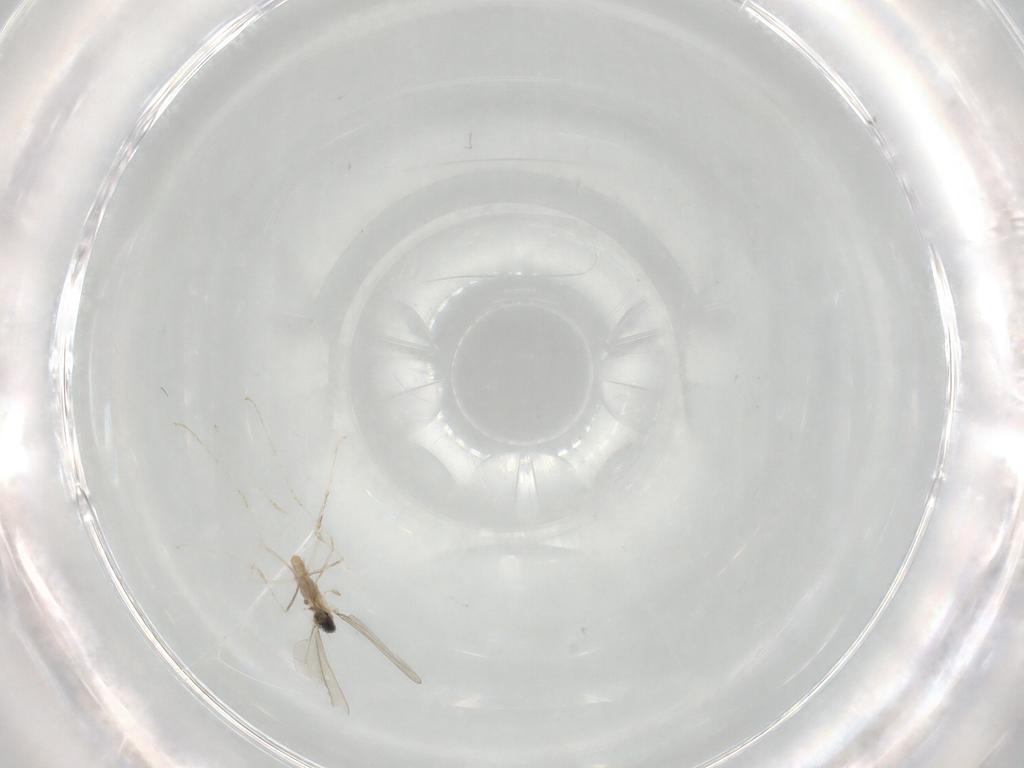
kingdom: Animalia
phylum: Arthropoda
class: Insecta
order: Diptera
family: Cecidomyiidae
